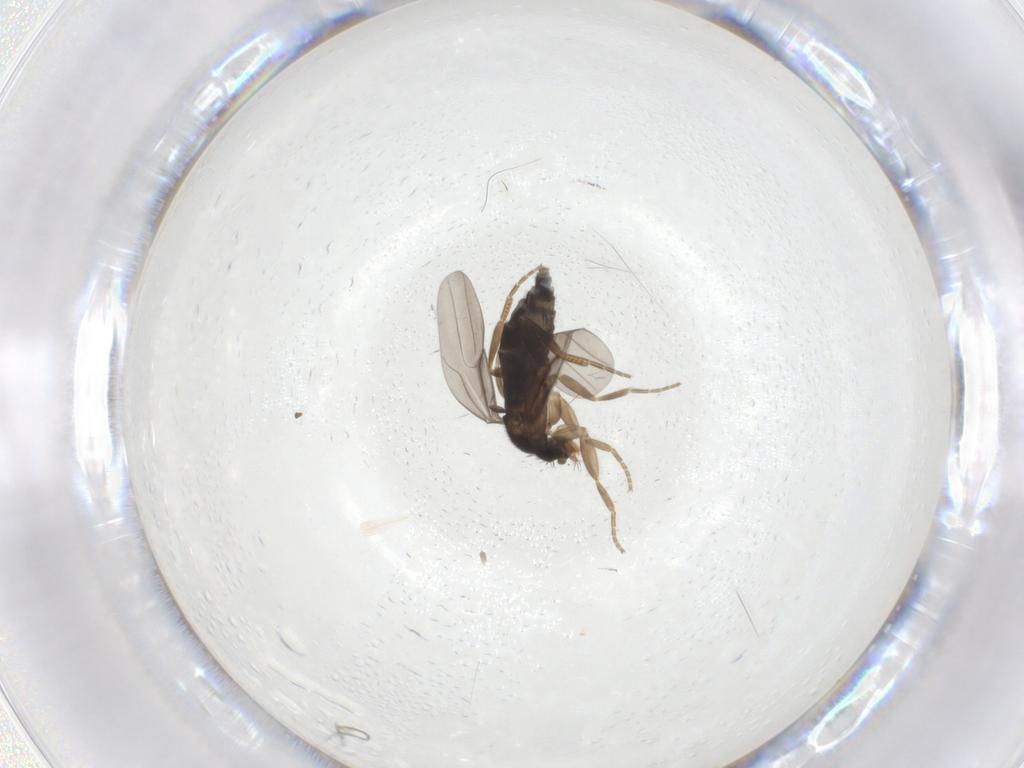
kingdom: Animalia
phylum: Arthropoda
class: Insecta
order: Diptera
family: Phoridae
